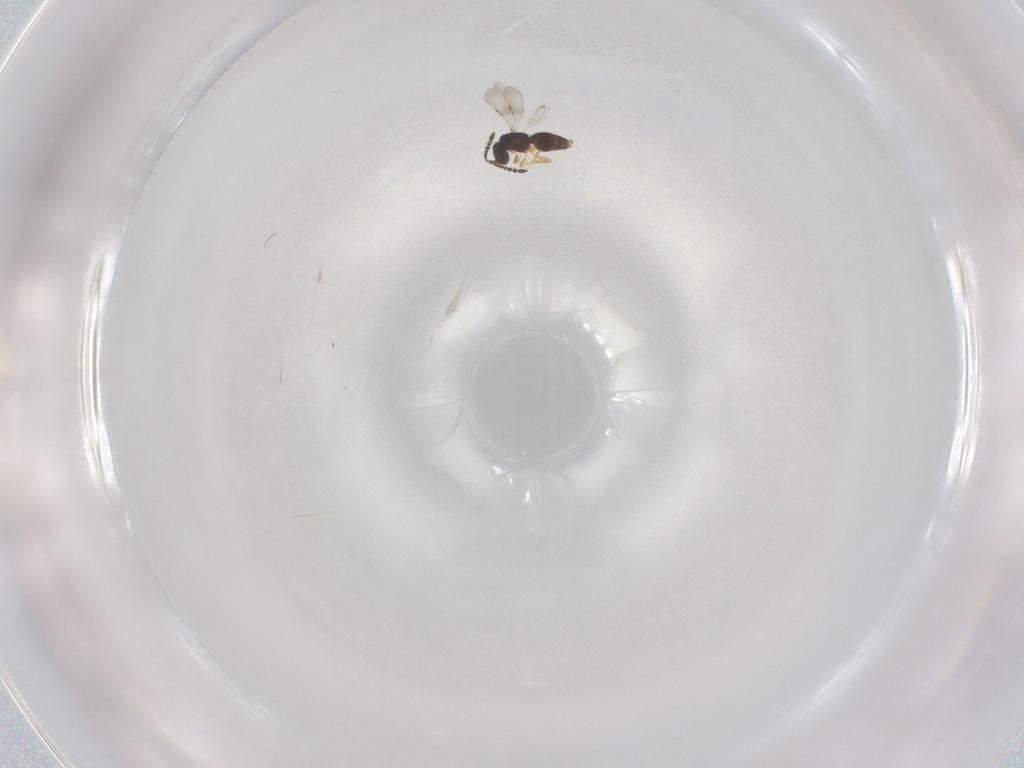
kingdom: Animalia
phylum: Arthropoda
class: Insecta
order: Hymenoptera
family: Ceraphronidae
